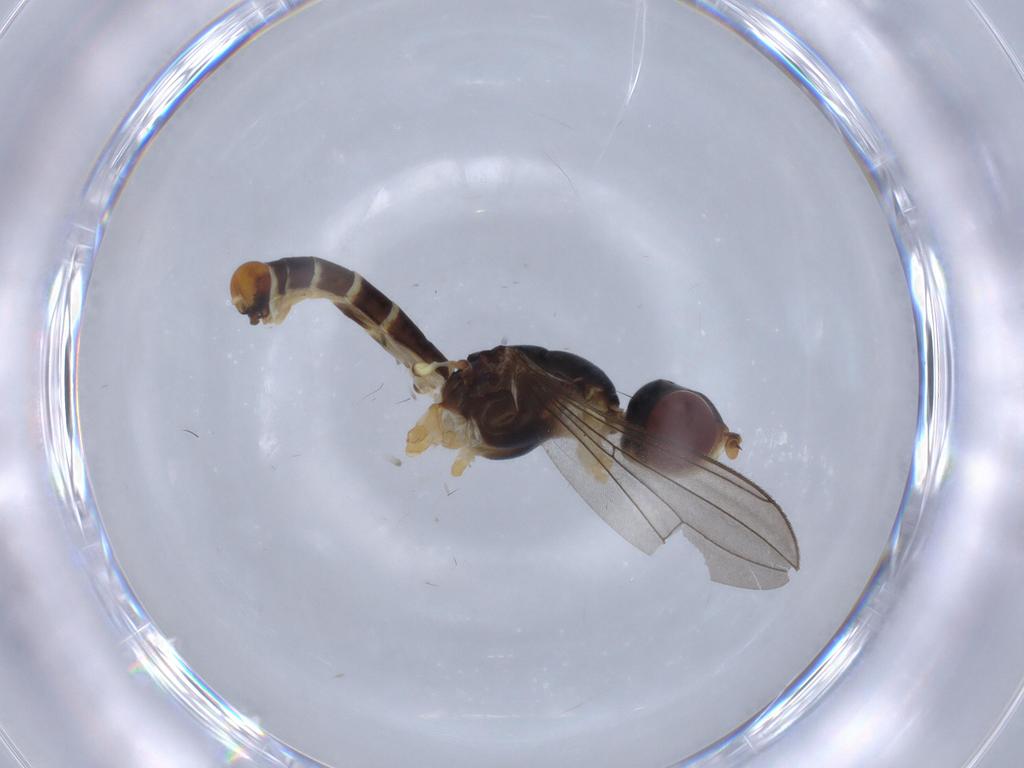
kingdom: Animalia
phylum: Arthropoda
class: Insecta
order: Diptera
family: Micropezidae
